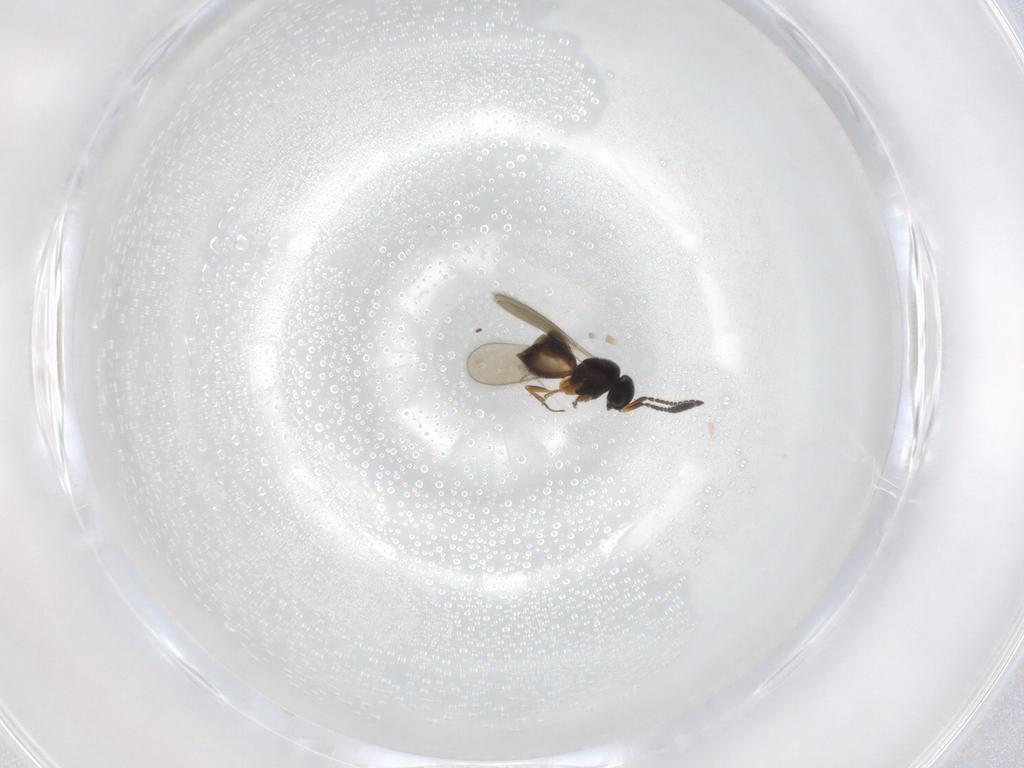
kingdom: Animalia
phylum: Arthropoda
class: Insecta
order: Hymenoptera
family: Scelionidae
